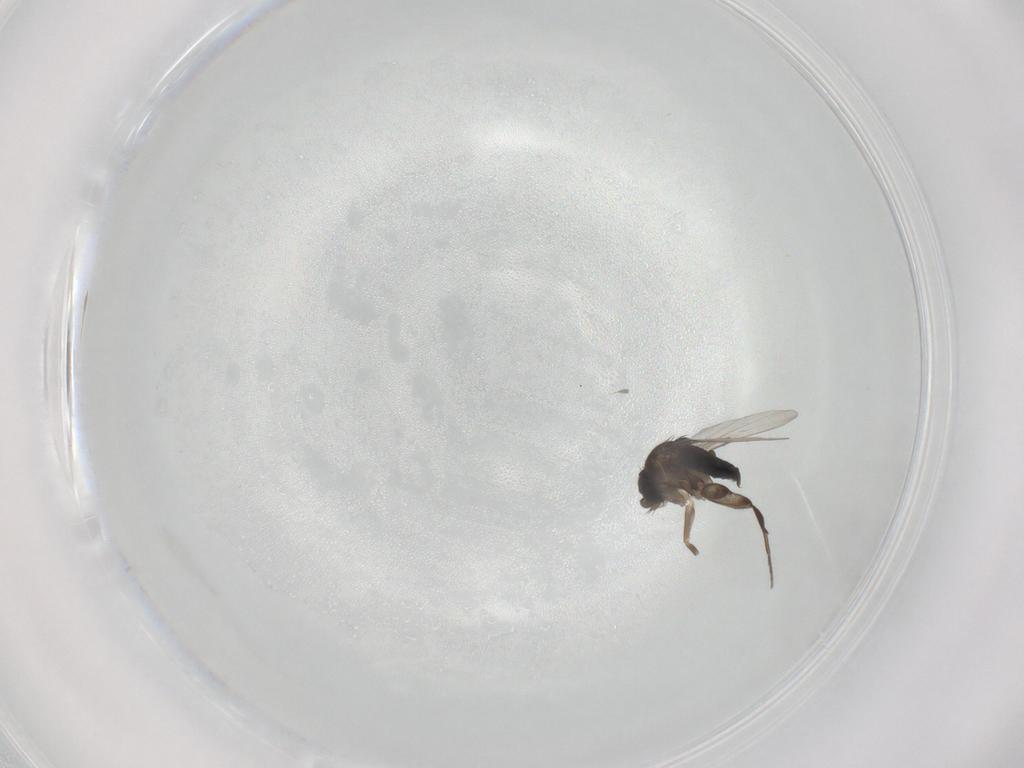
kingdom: Animalia
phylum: Arthropoda
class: Insecta
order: Diptera
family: Phoridae
